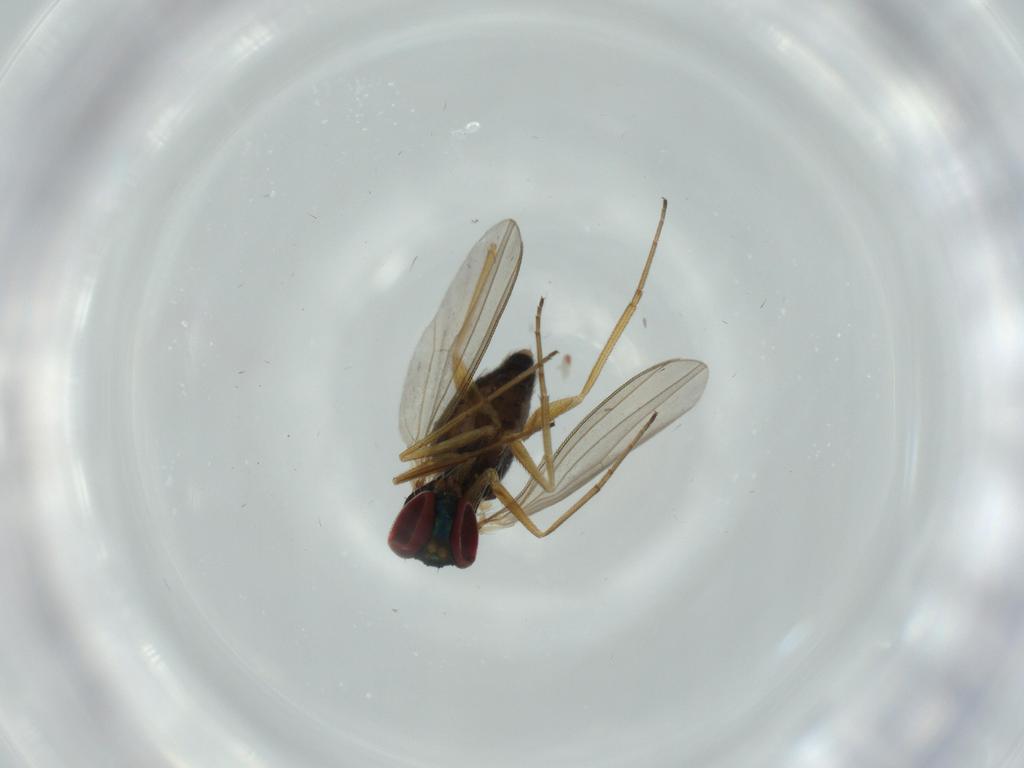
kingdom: Animalia
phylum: Arthropoda
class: Insecta
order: Diptera
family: Dolichopodidae
